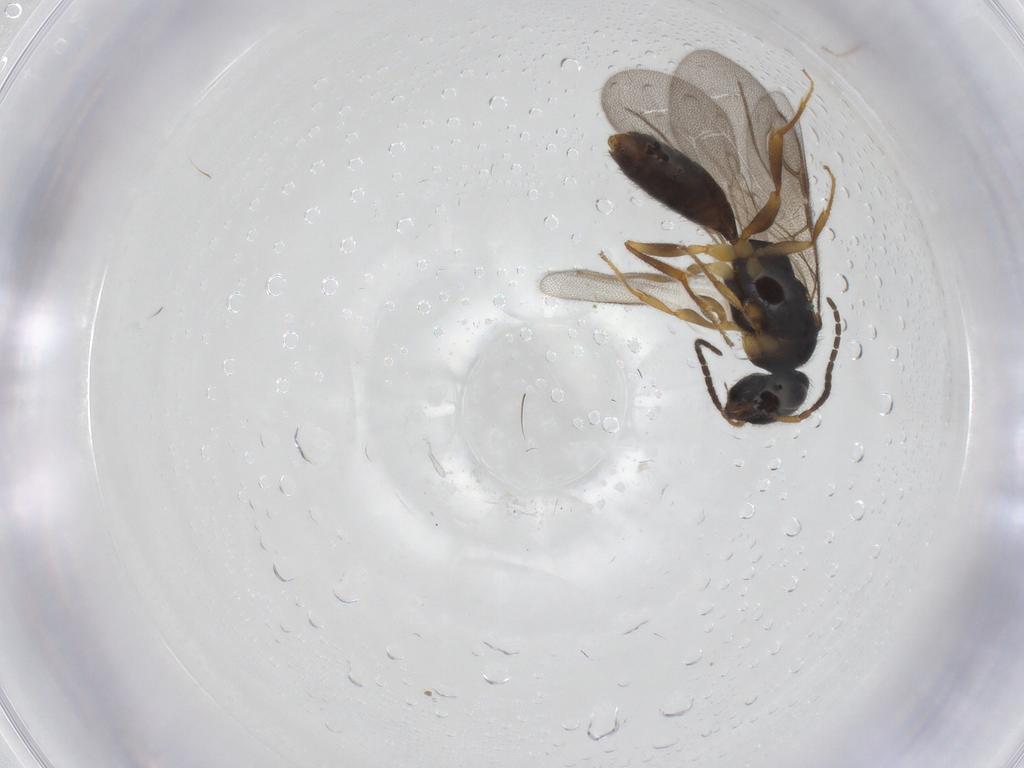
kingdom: Animalia
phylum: Arthropoda
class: Insecta
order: Hymenoptera
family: Bethylidae
